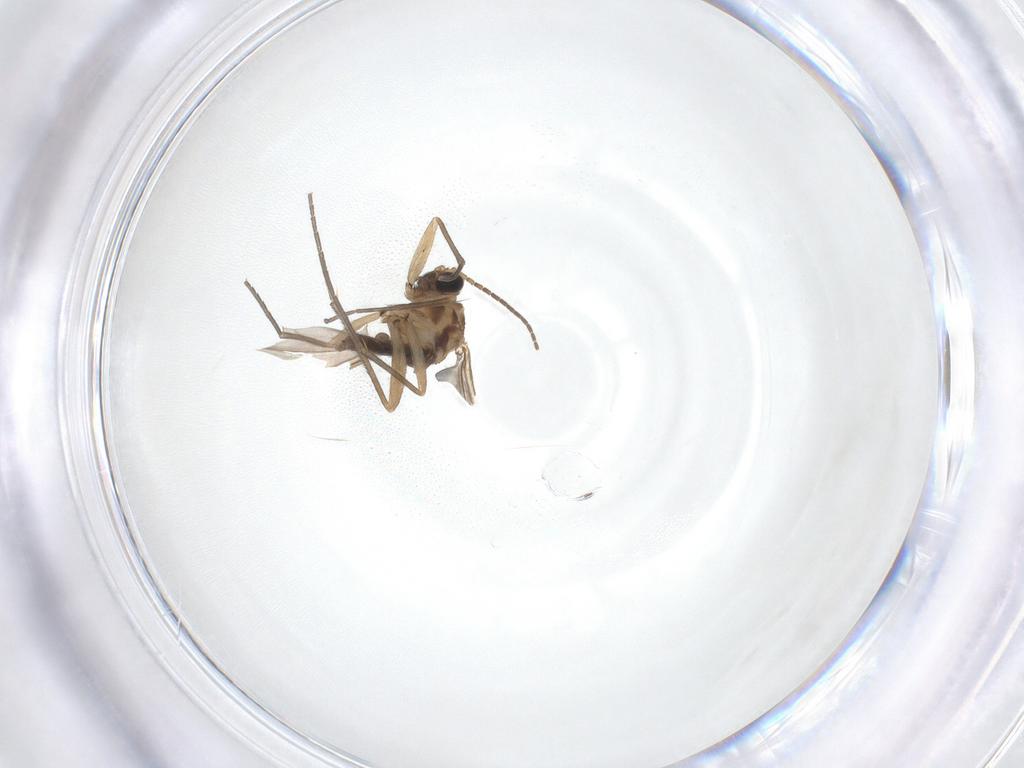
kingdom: Animalia
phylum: Arthropoda
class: Insecta
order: Diptera
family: Sciaridae
